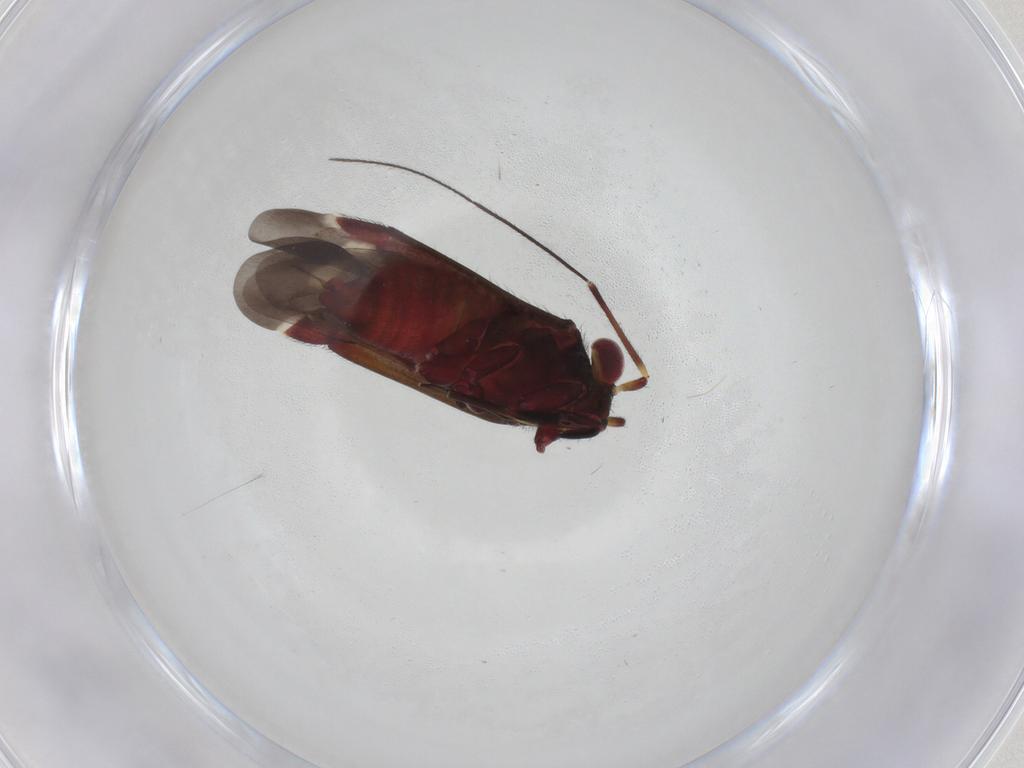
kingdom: Animalia
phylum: Arthropoda
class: Insecta
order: Hemiptera
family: Miridae
